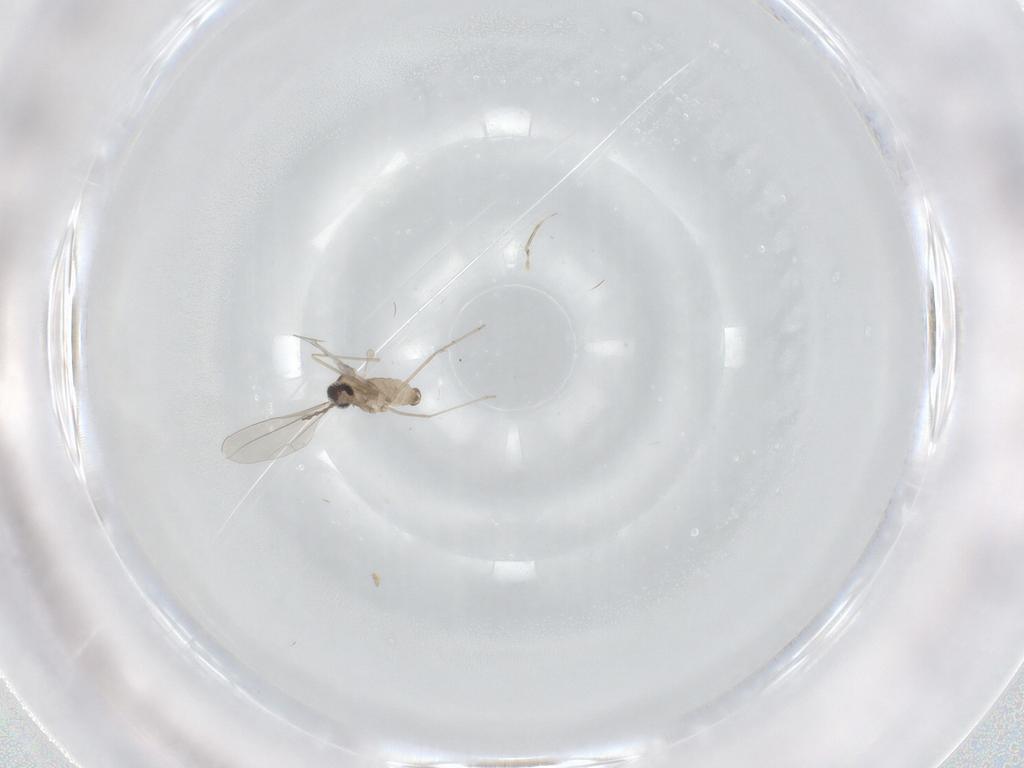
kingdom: Animalia
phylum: Arthropoda
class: Insecta
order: Diptera
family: Cecidomyiidae
